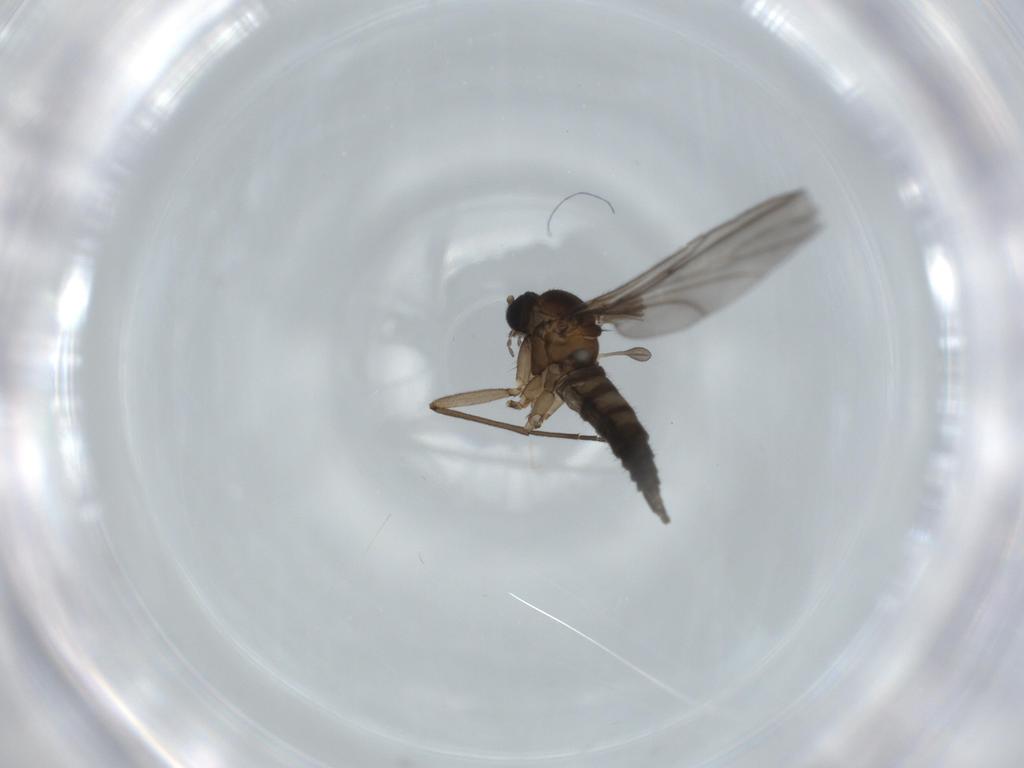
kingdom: Animalia
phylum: Arthropoda
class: Insecta
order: Diptera
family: Sciaridae
